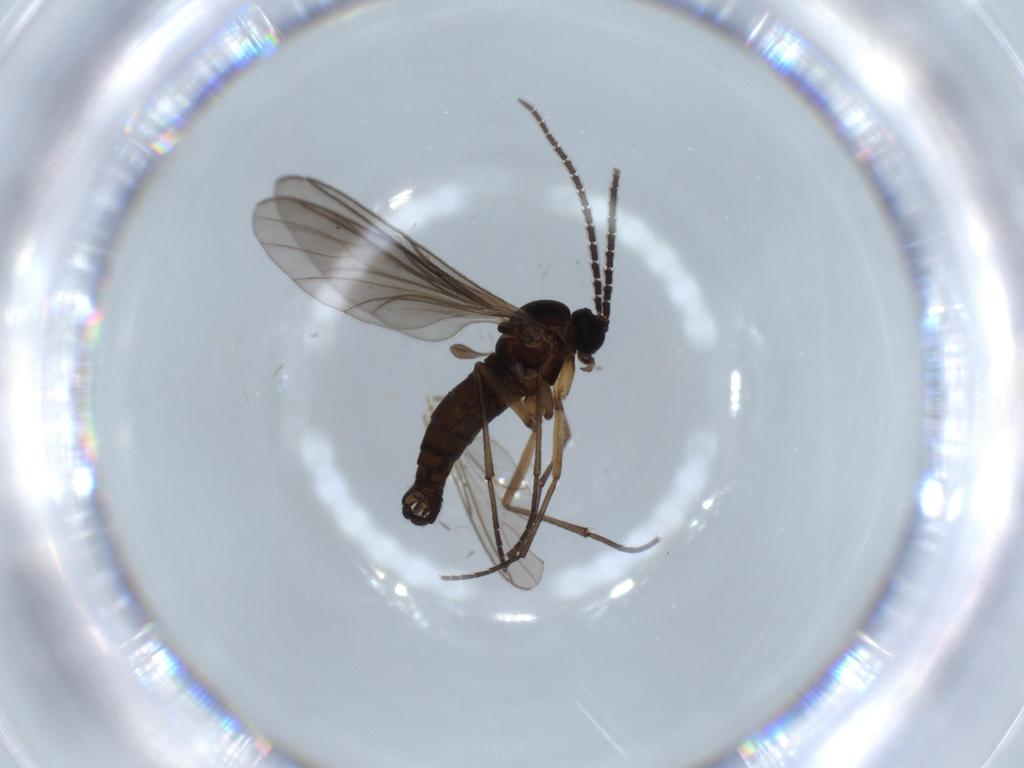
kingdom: Animalia
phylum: Arthropoda
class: Insecta
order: Diptera
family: Sciaridae
